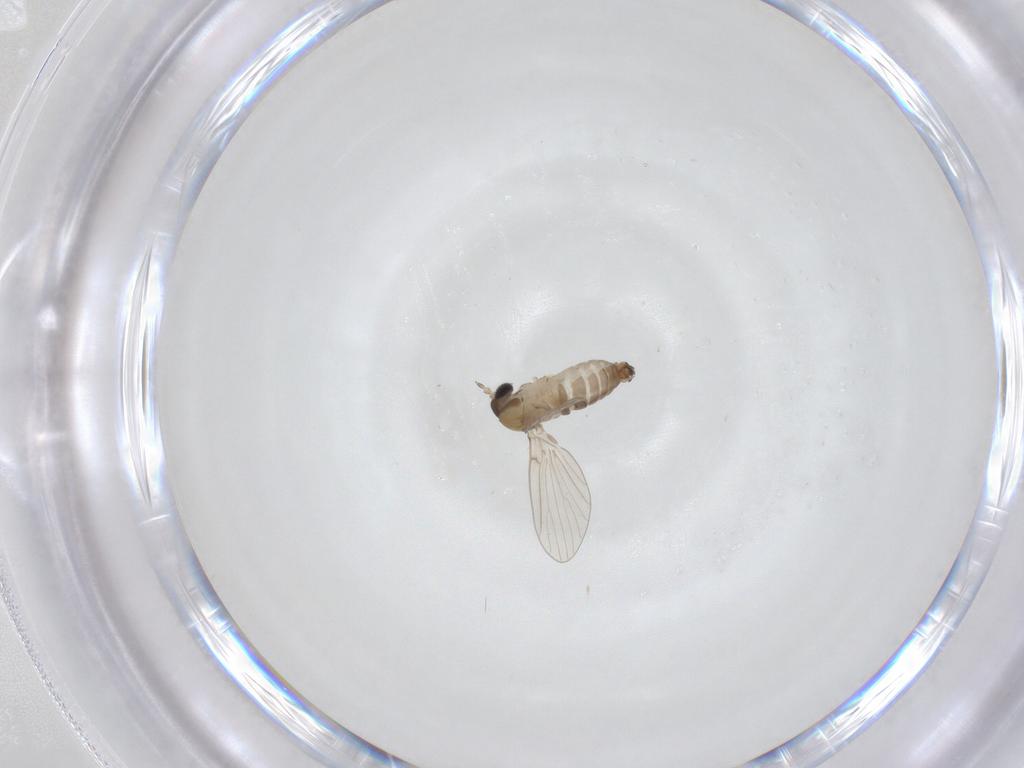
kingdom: Animalia
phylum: Arthropoda
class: Insecta
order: Diptera
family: Psychodidae
